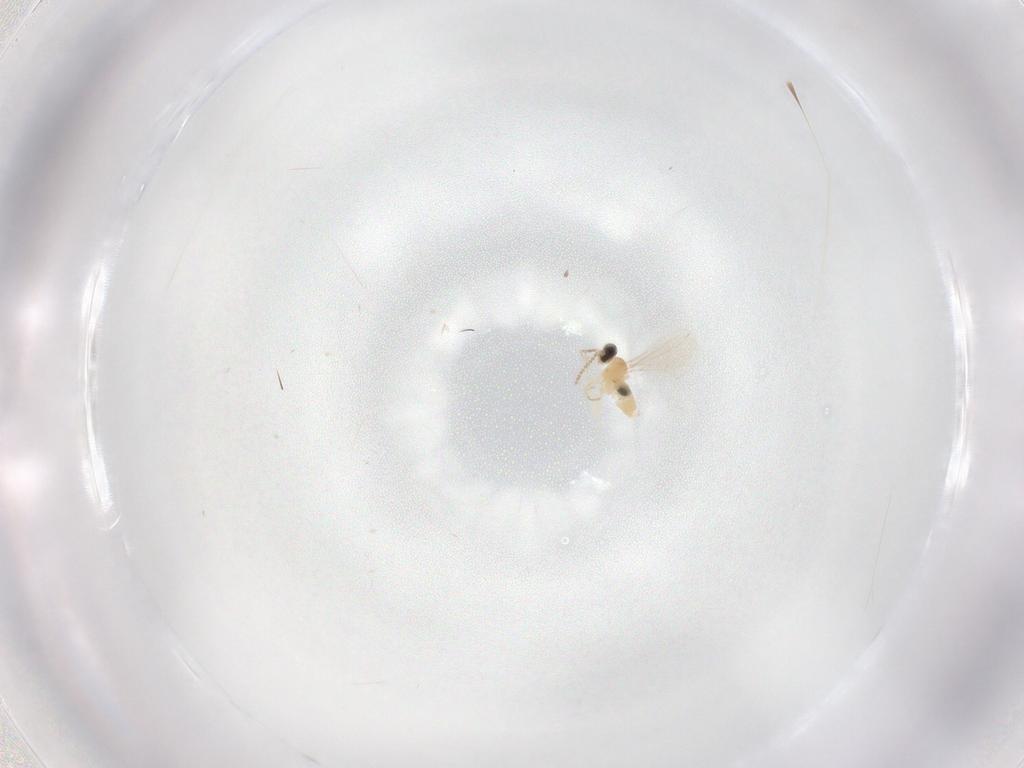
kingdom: Animalia
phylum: Arthropoda
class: Insecta
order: Diptera
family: Cecidomyiidae
